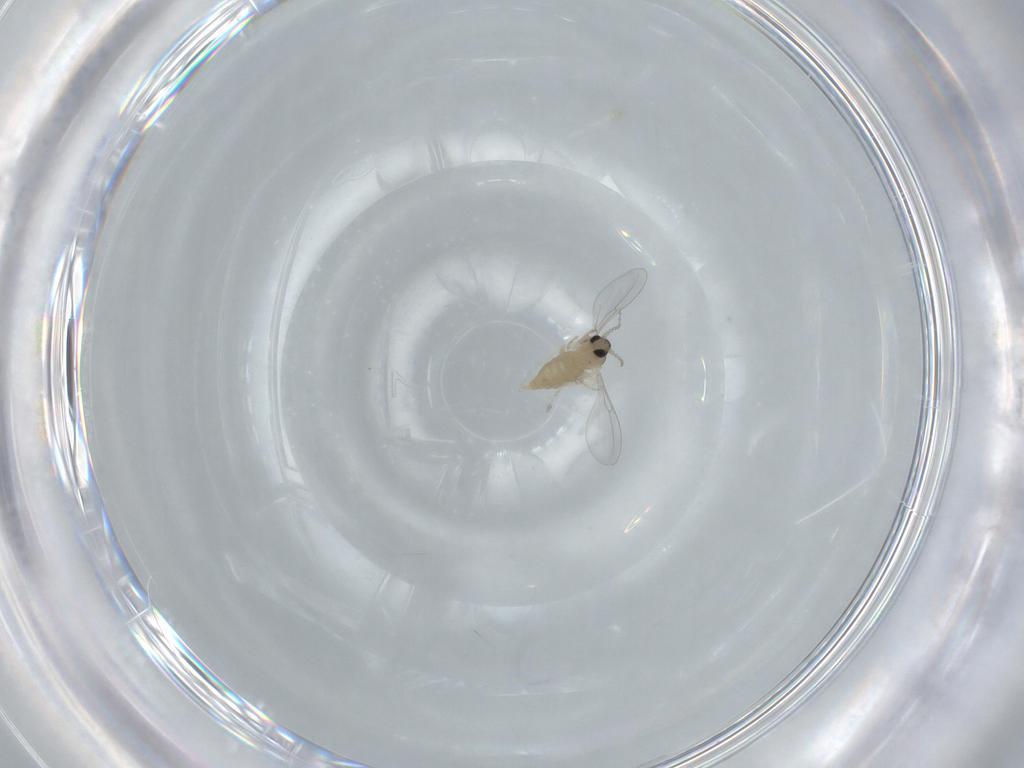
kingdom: Animalia
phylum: Arthropoda
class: Insecta
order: Diptera
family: Cecidomyiidae
